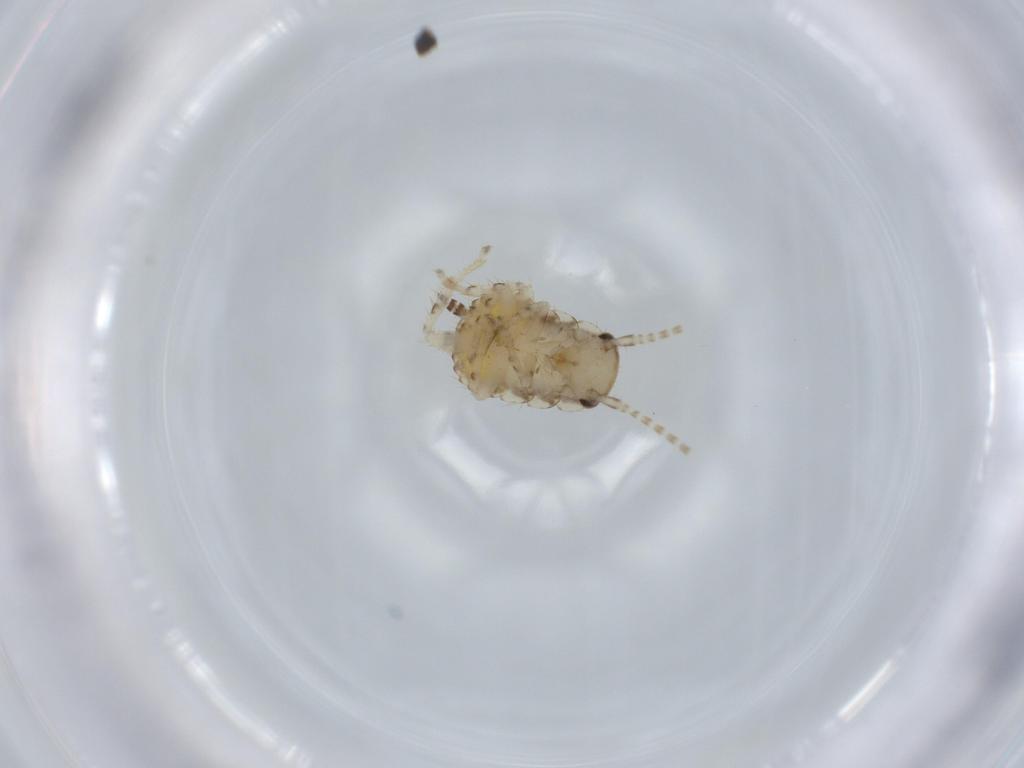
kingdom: Animalia
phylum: Arthropoda
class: Insecta
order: Blattodea
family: Ectobiidae
